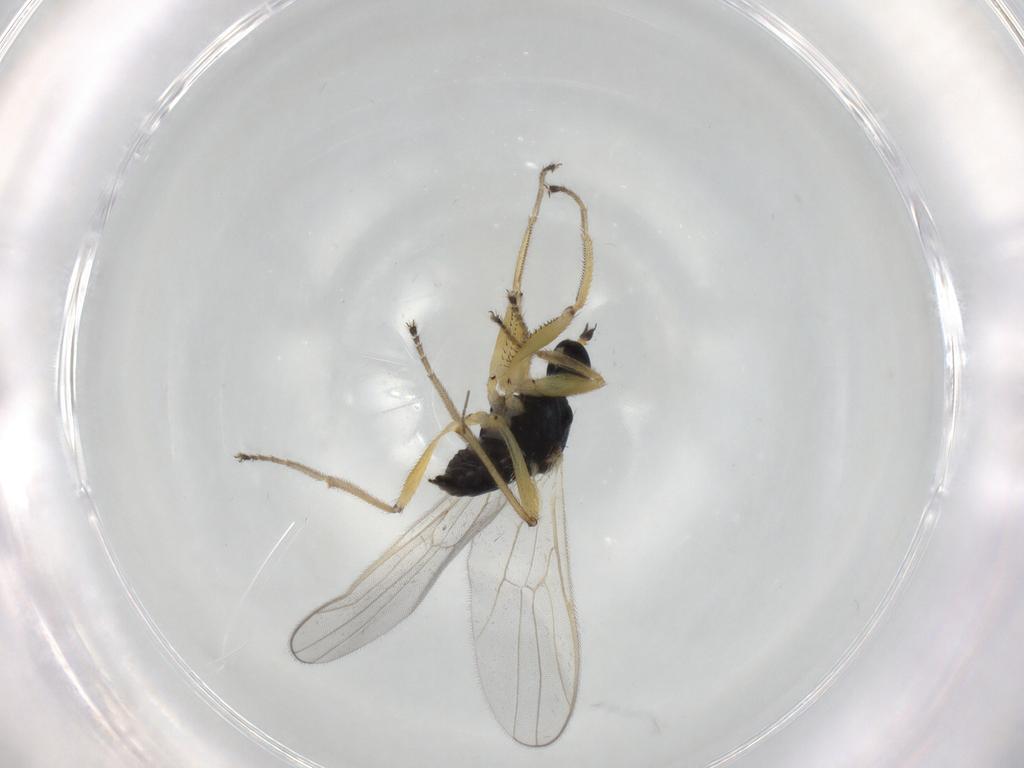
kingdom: Animalia
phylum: Arthropoda
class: Insecta
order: Diptera
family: Hybotidae
